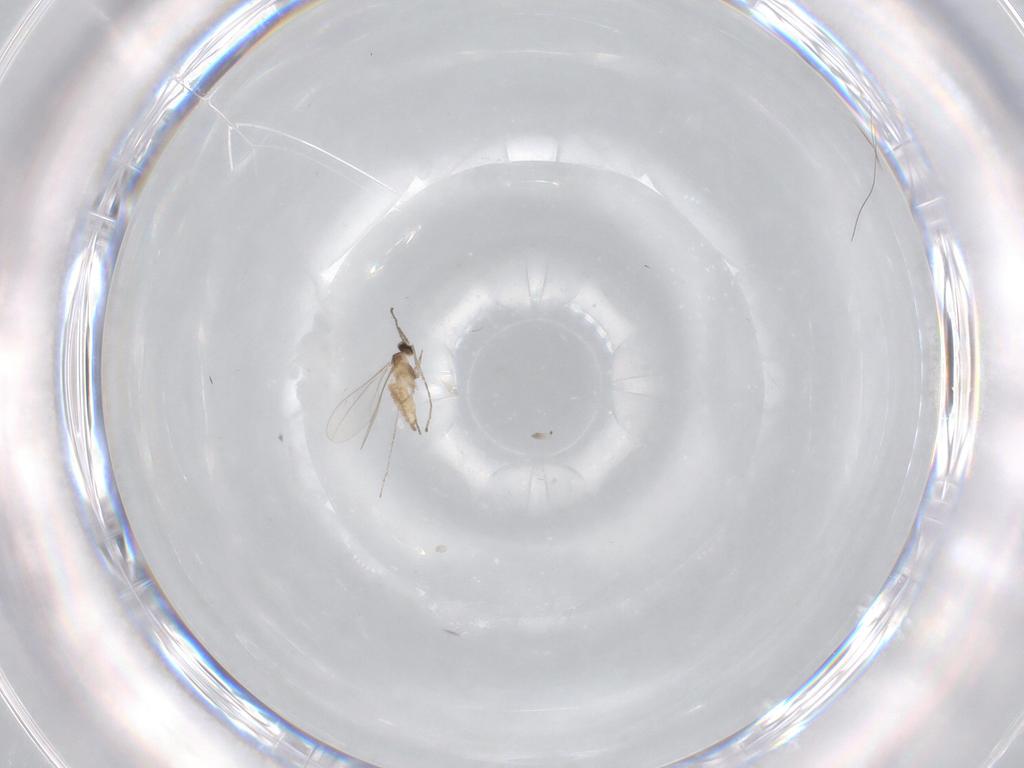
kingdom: Animalia
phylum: Arthropoda
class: Insecta
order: Diptera
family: Cecidomyiidae
